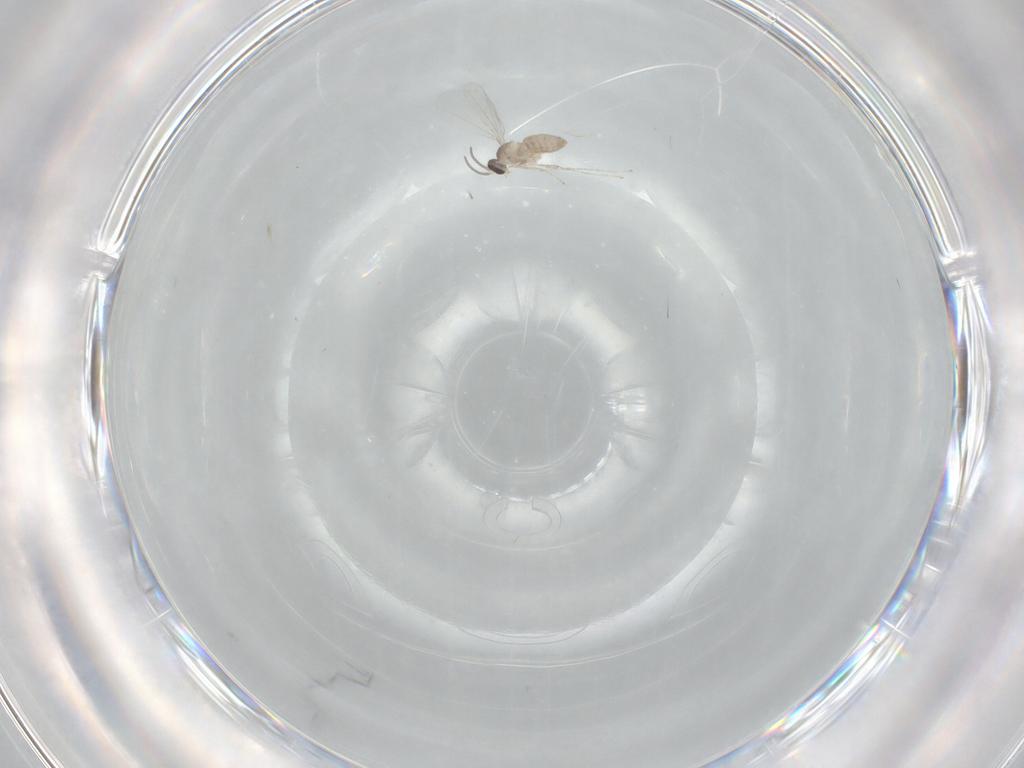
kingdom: Animalia
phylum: Arthropoda
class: Insecta
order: Diptera
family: Cecidomyiidae
